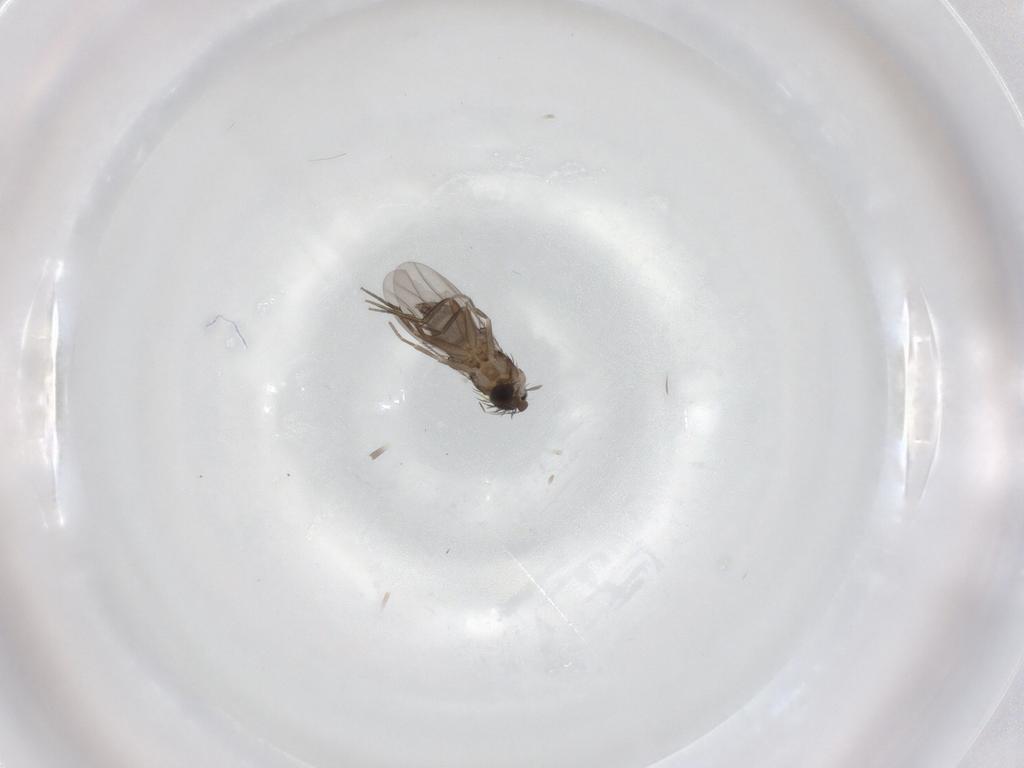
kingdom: Animalia
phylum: Arthropoda
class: Insecta
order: Diptera
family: Phoridae
